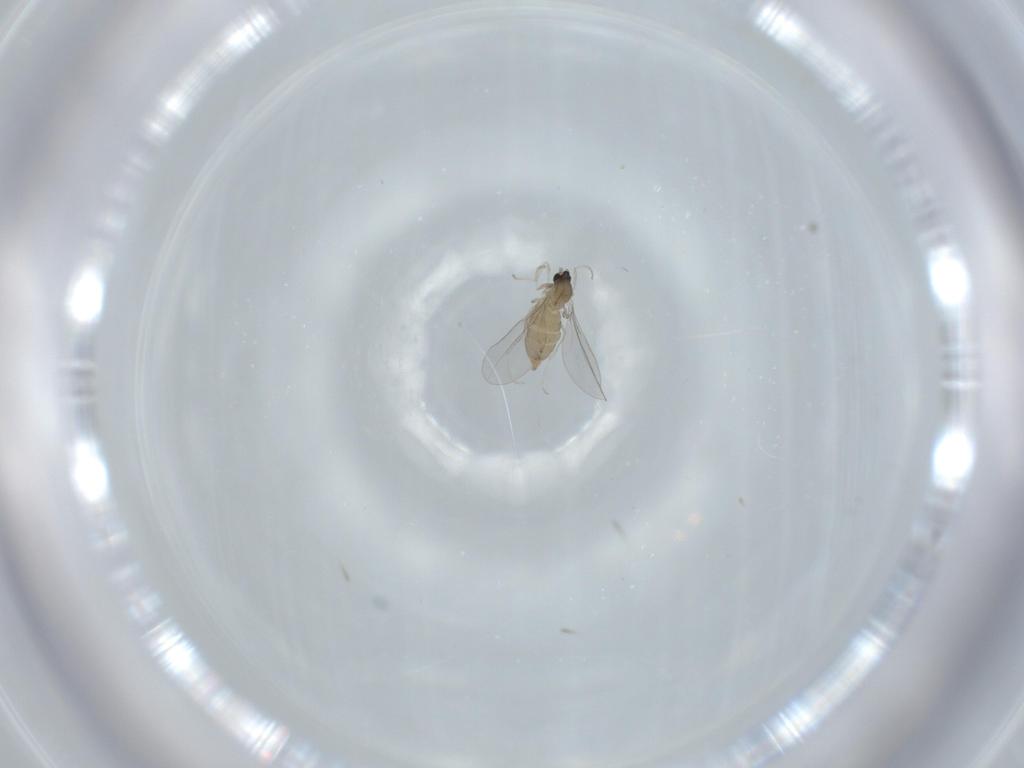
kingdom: Animalia
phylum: Arthropoda
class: Insecta
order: Diptera
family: Cecidomyiidae
